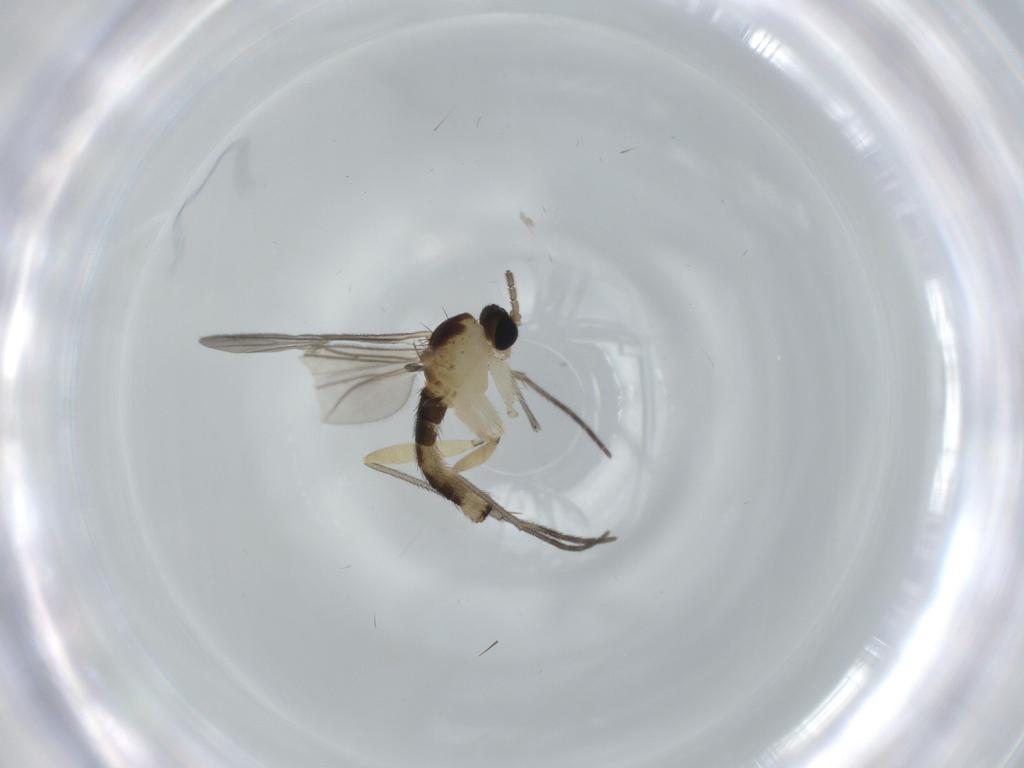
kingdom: Animalia
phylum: Arthropoda
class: Insecta
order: Diptera
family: Sciaridae
